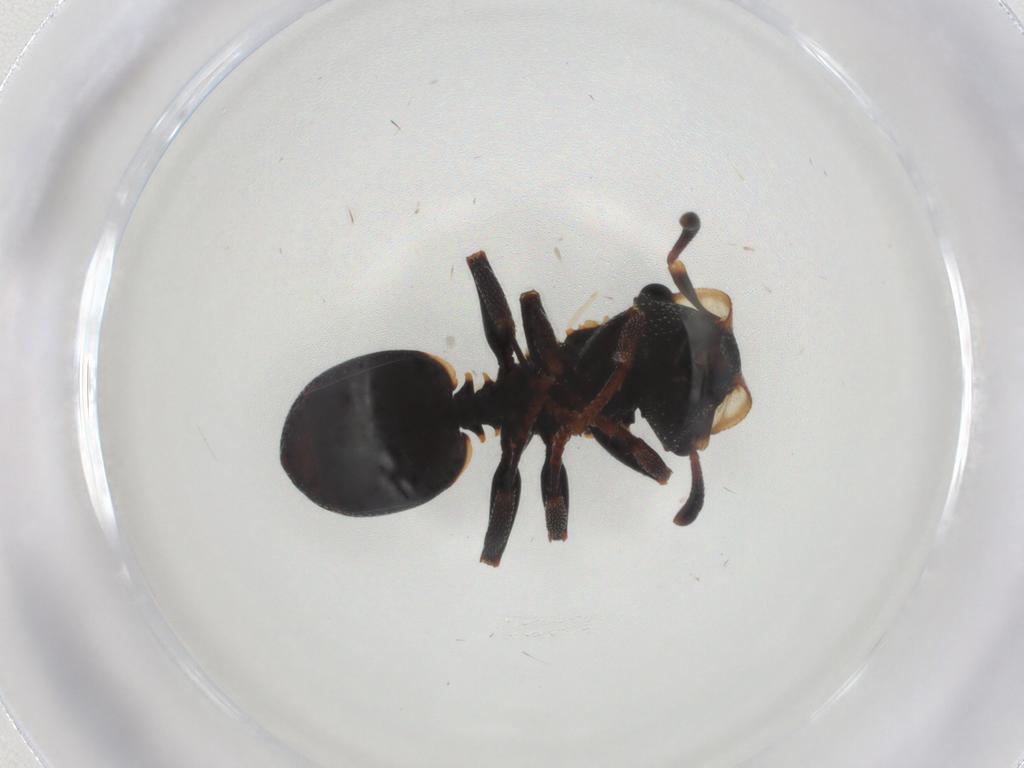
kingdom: Animalia
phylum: Arthropoda
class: Insecta
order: Hymenoptera
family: Formicidae
